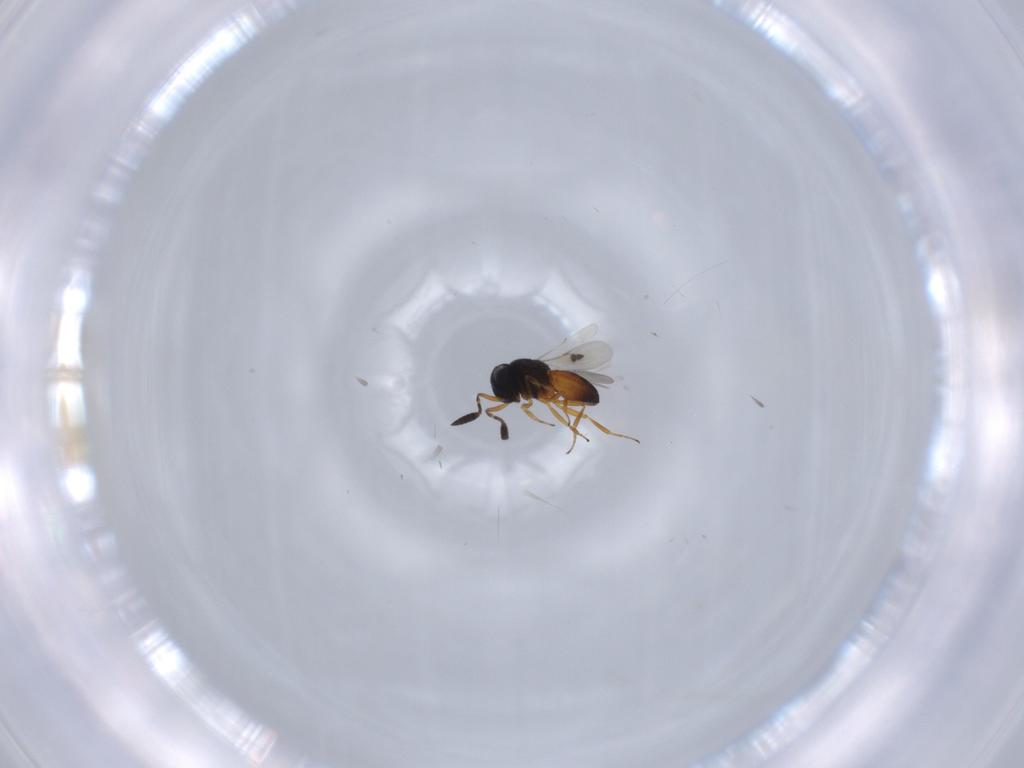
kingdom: Animalia
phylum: Arthropoda
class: Insecta
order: Hymenoptera
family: Scelionidae
